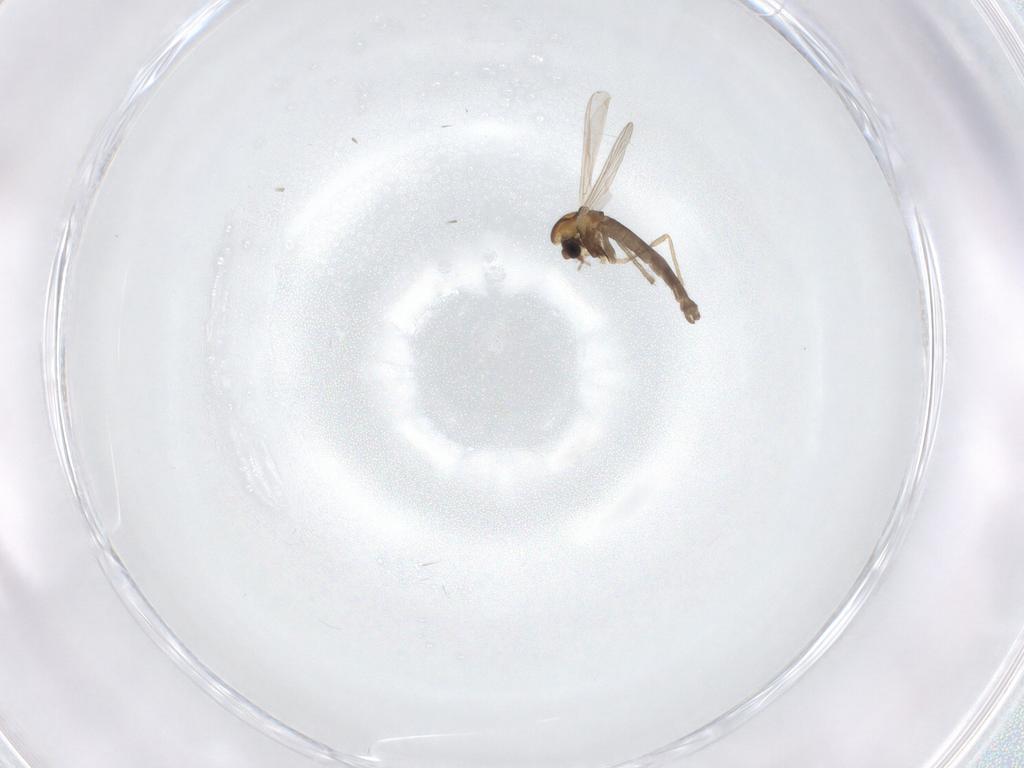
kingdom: Animalia
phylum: Arthropoda
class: Insecta
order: Diptera
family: Chironomidae
